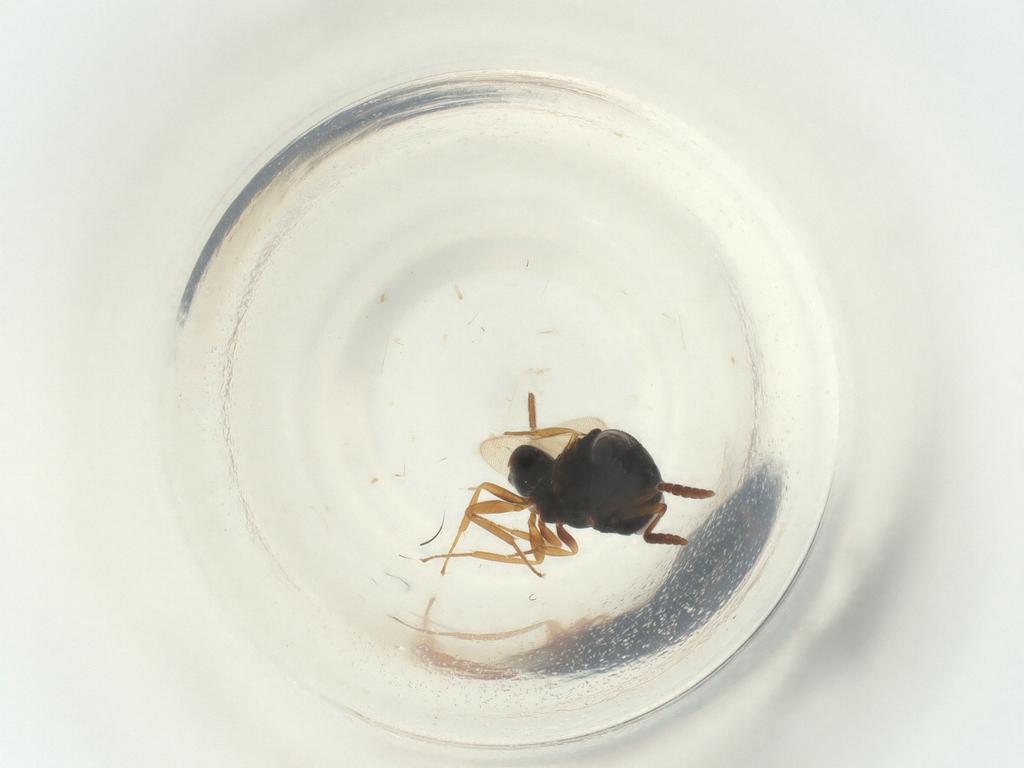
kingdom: Animalia
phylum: Arthropoda
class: Insecta
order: Hymenoptera
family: Scelionidae
